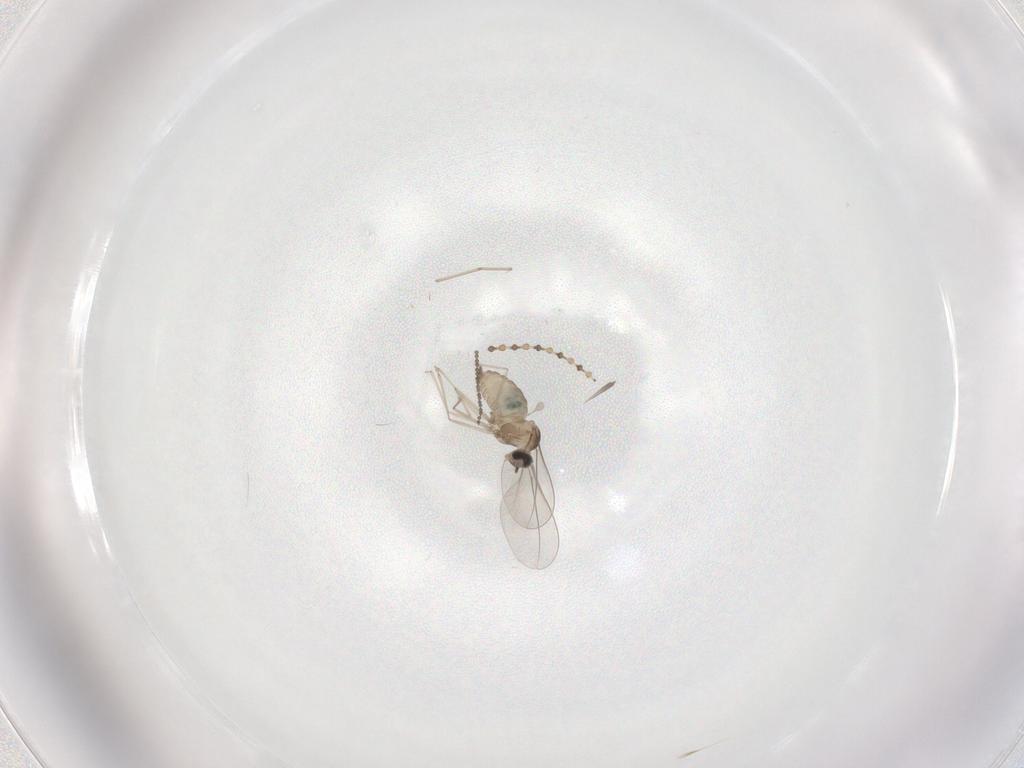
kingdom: Animalia
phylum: Arthropoda
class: Insecta
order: Diptera
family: Cecidomyiidae
